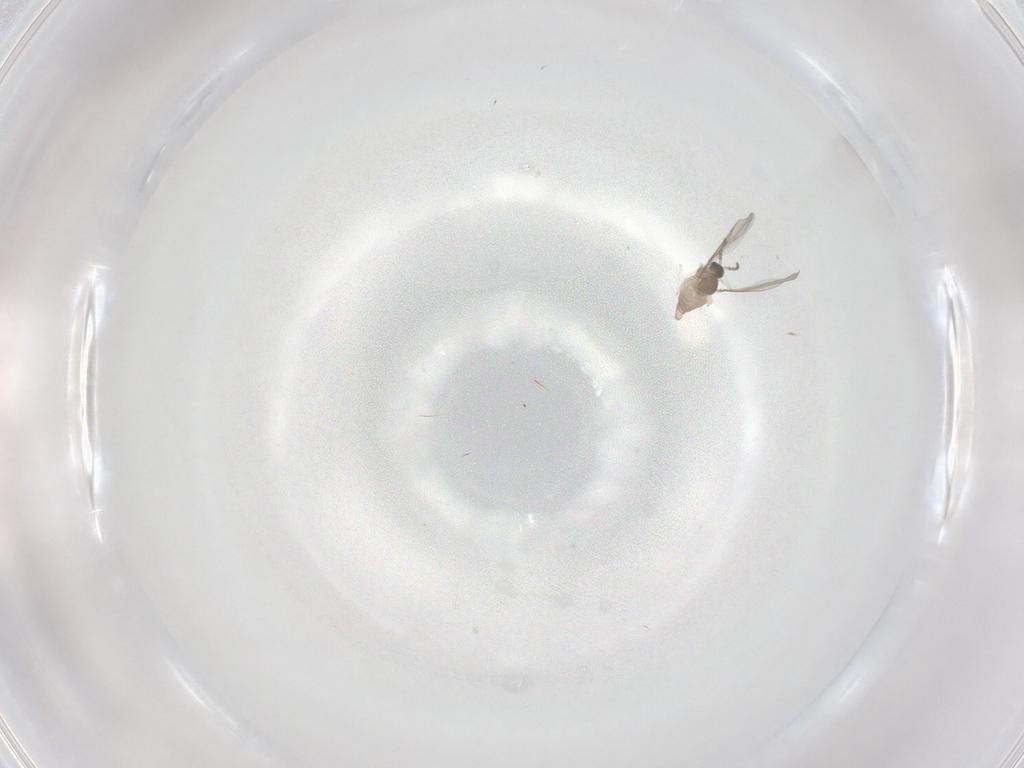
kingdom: Animalia
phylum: Arthropoda
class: Insecta
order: Diptera
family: Cecidomyiidae
